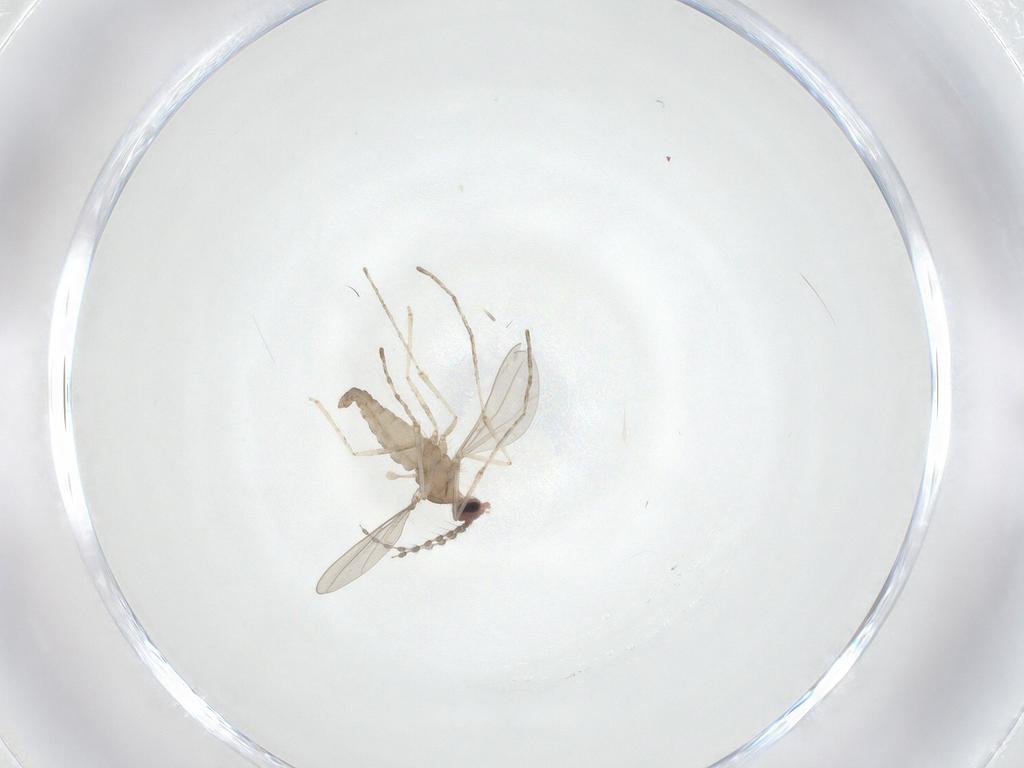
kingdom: Animalia
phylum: Arthropoda
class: Insecta
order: Diptera
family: Cecidomyiidae
